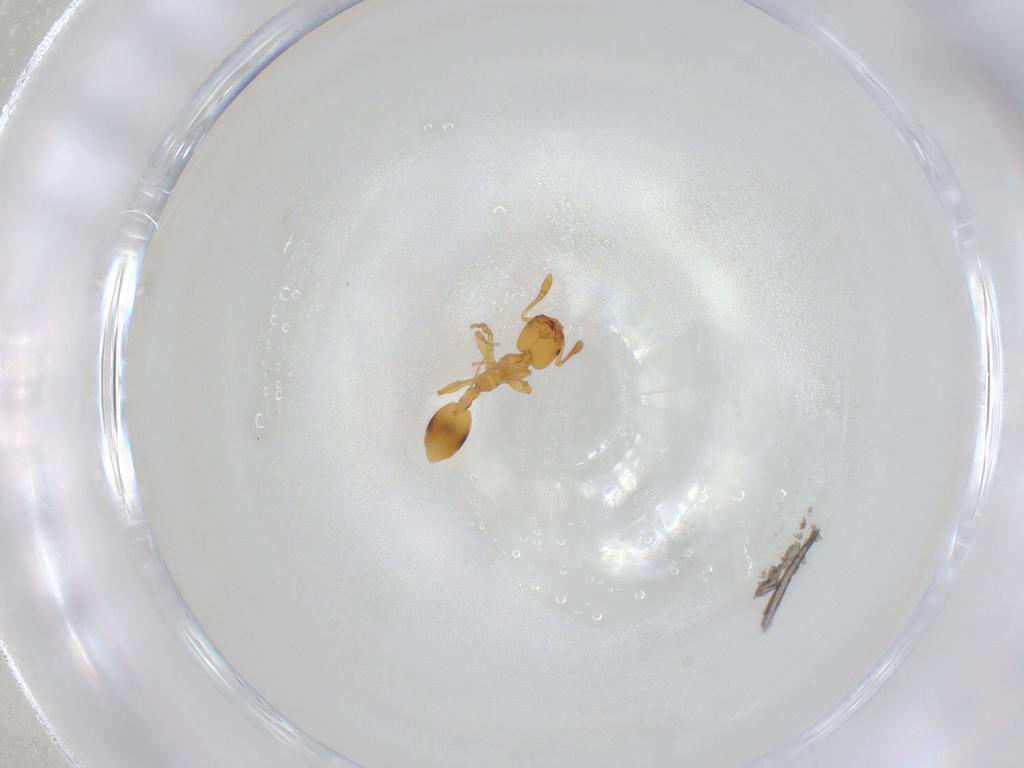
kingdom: Animalia
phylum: Arthropoda
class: Insecta
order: Hymenoptera
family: Formicidae
